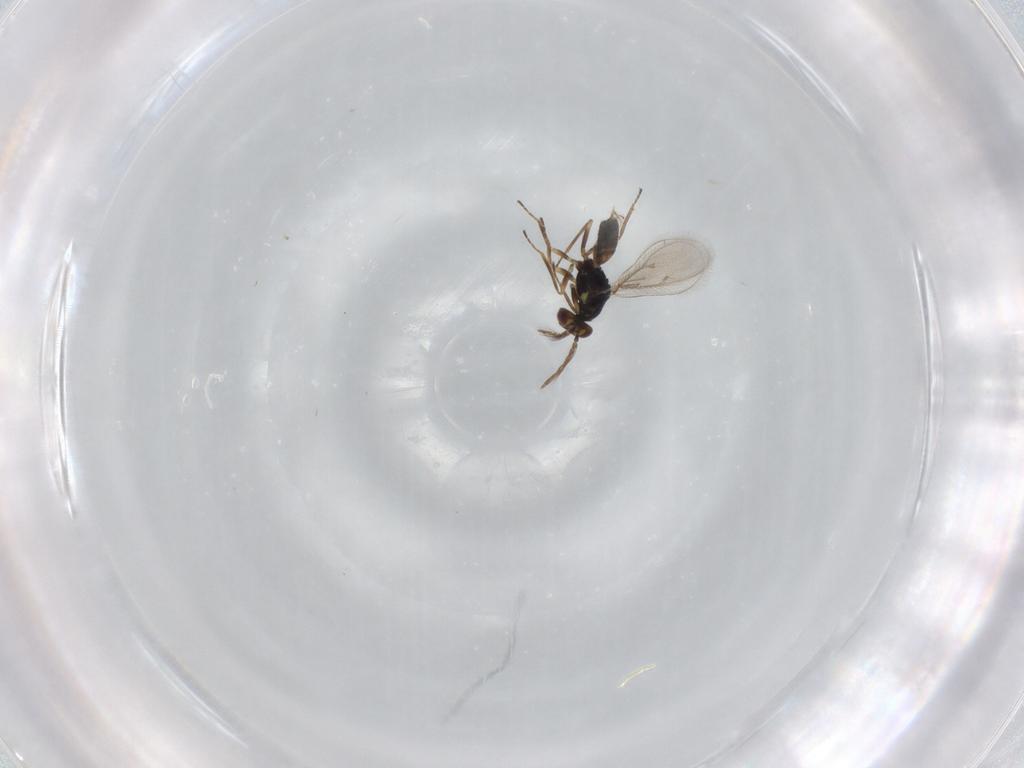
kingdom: Animalia
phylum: Arthropoda
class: Insecta
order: Hymenoptera
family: Eulophidae
